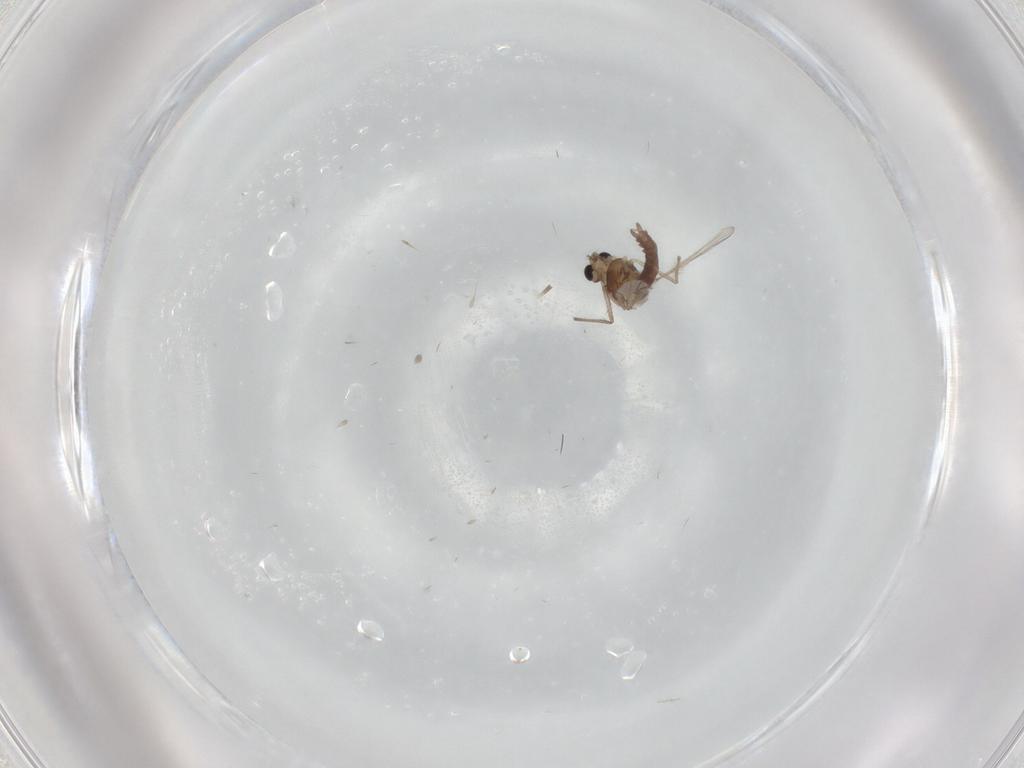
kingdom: Animalia
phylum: Arthropoda
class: Insecta
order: Diptera
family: Chironomidae
